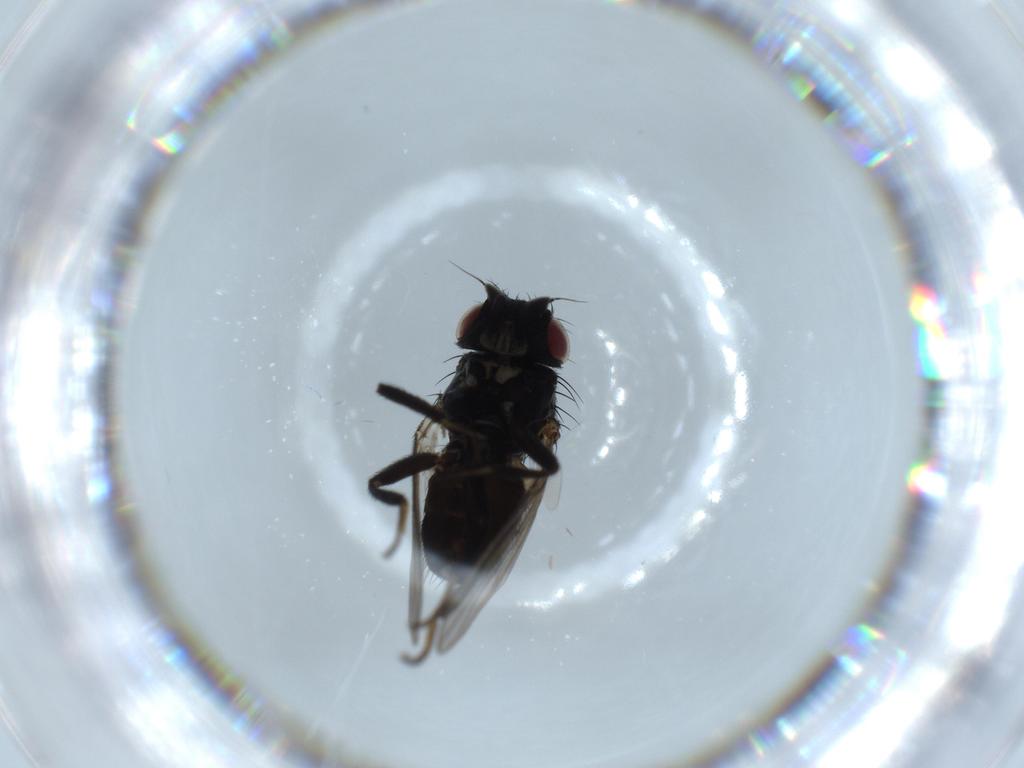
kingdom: Animalia
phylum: Arthropoda
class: Insecta
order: Diptera
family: Milichiidae
